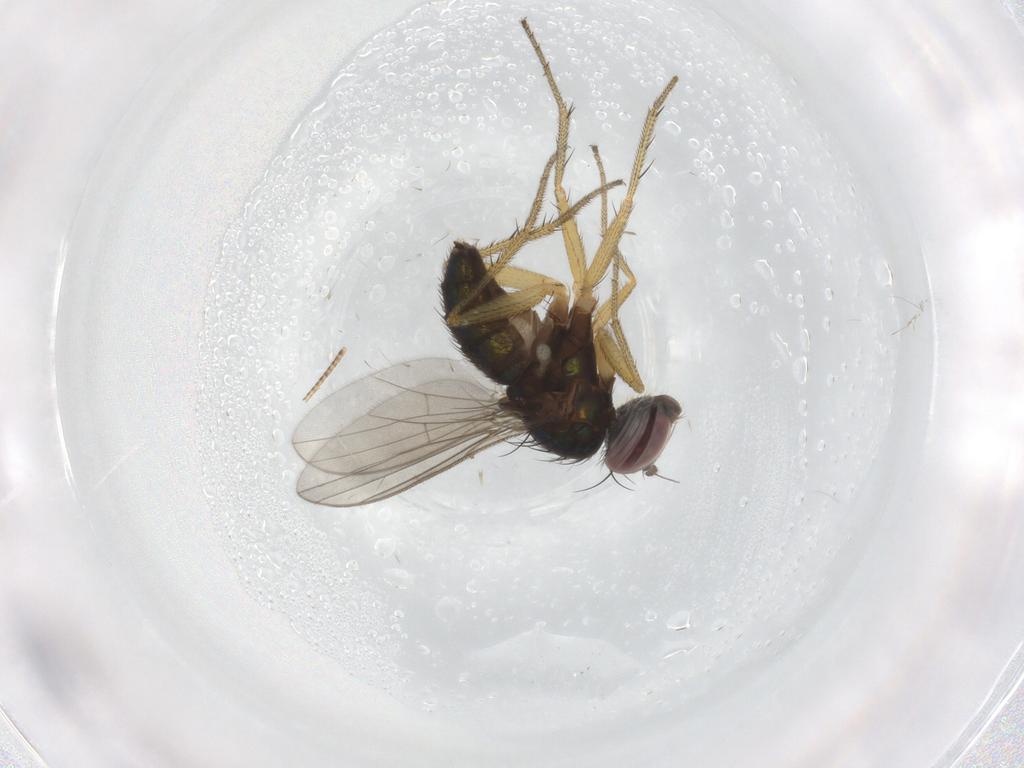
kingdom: Animalia
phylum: Arthropoda
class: Insecta
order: Diptera
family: Dolichopodidae
